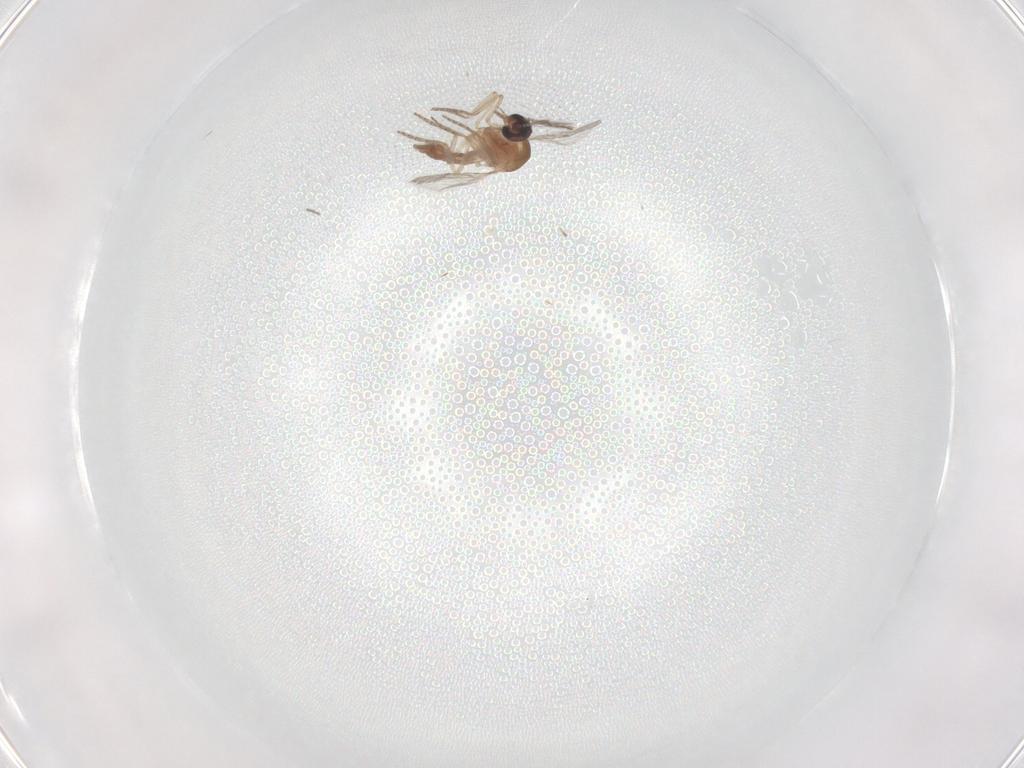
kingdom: Animalia
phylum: Arthropoda
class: Insecta
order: Diptera
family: Ceratopogonidae
